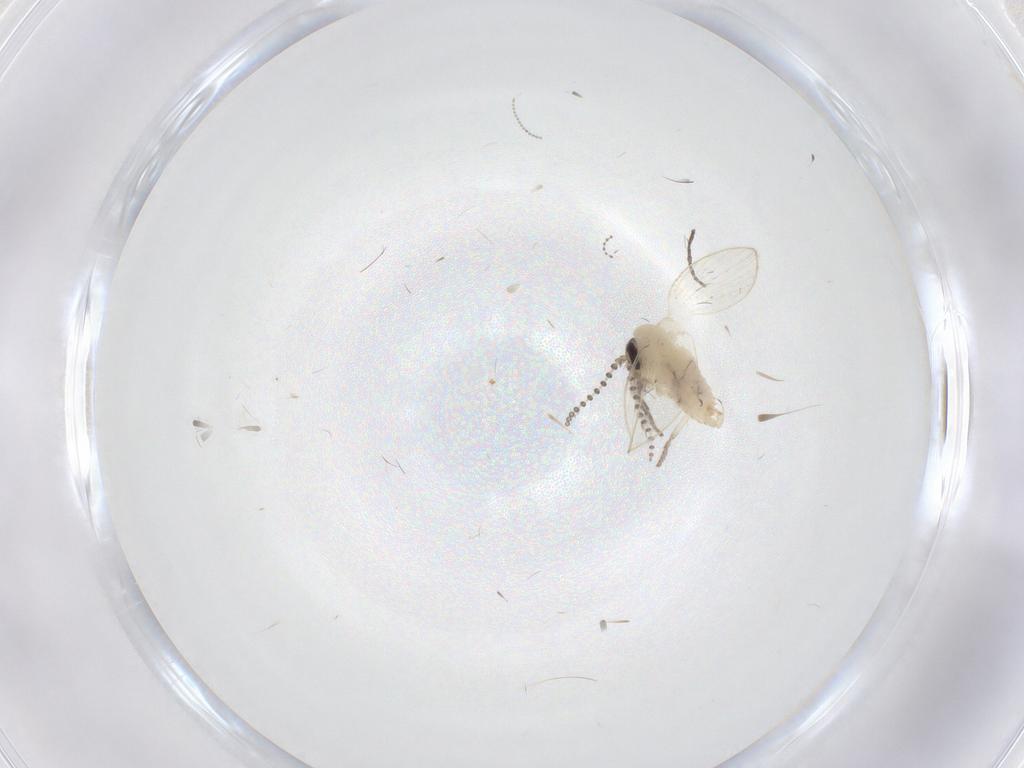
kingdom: Animalia
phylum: Arthropoda
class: Insecta
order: Diptera
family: Psychodidae
